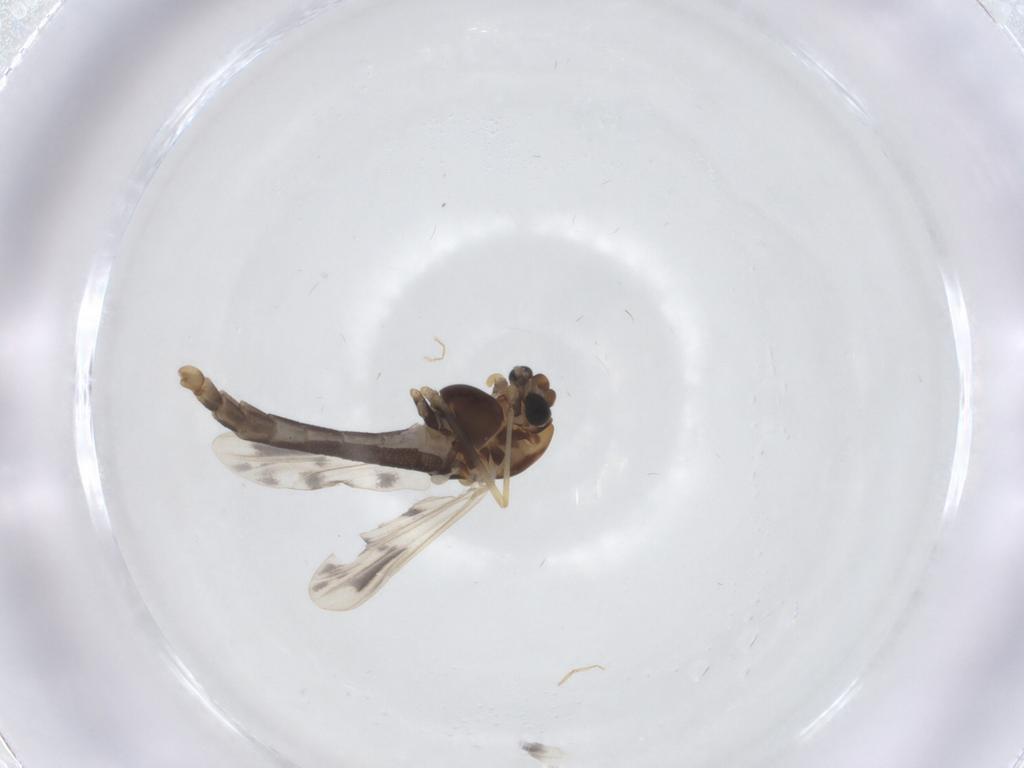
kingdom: Animalia
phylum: Arthropoda
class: Insecta
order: Diptera
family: Chironomidae
